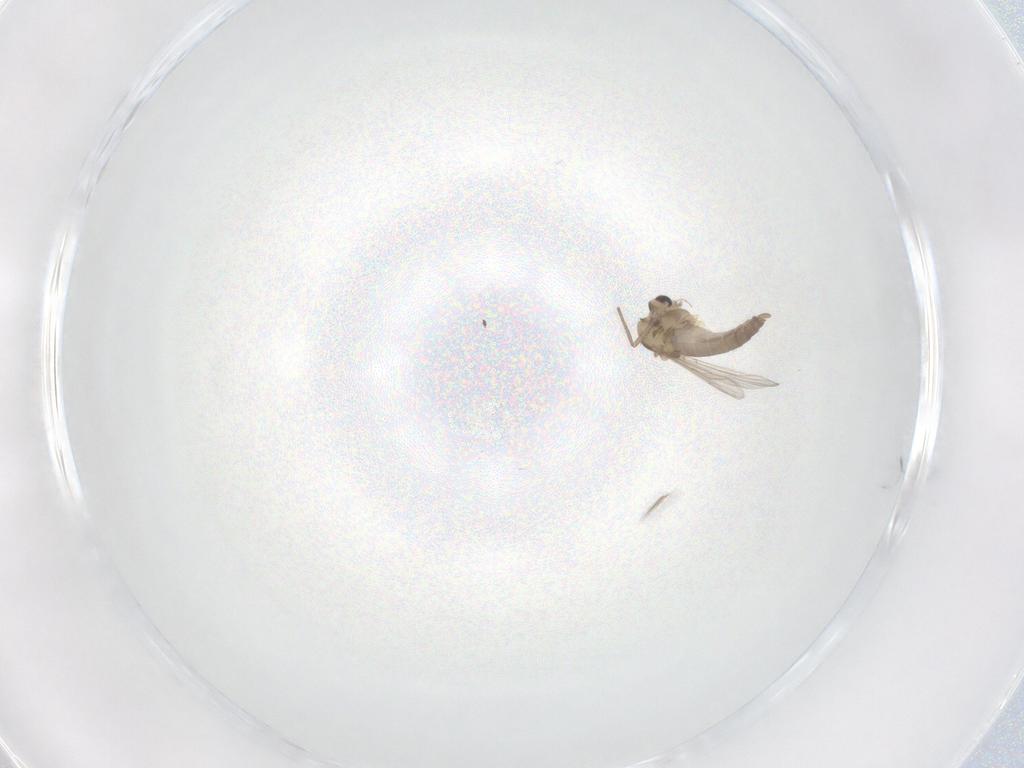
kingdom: Animalia
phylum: Arthropoda
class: Insecta
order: Diptera
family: Chironomidae
